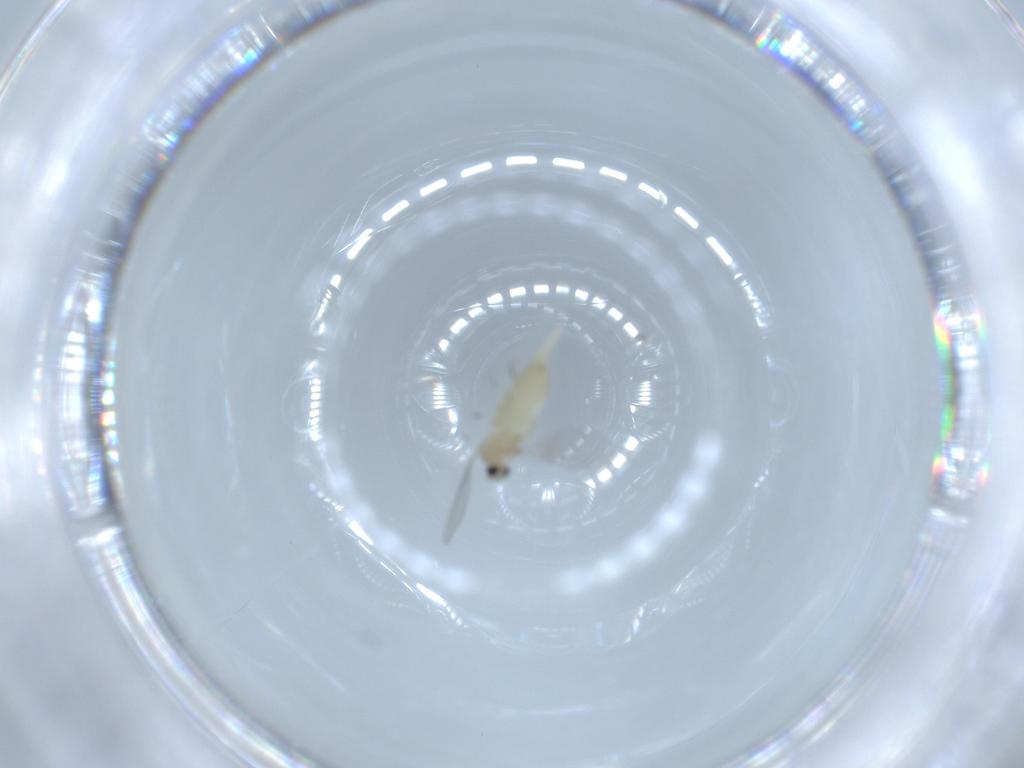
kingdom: Animalia
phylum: Arthropoda
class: Insecta
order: Diptera
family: Cecidomyiidae
